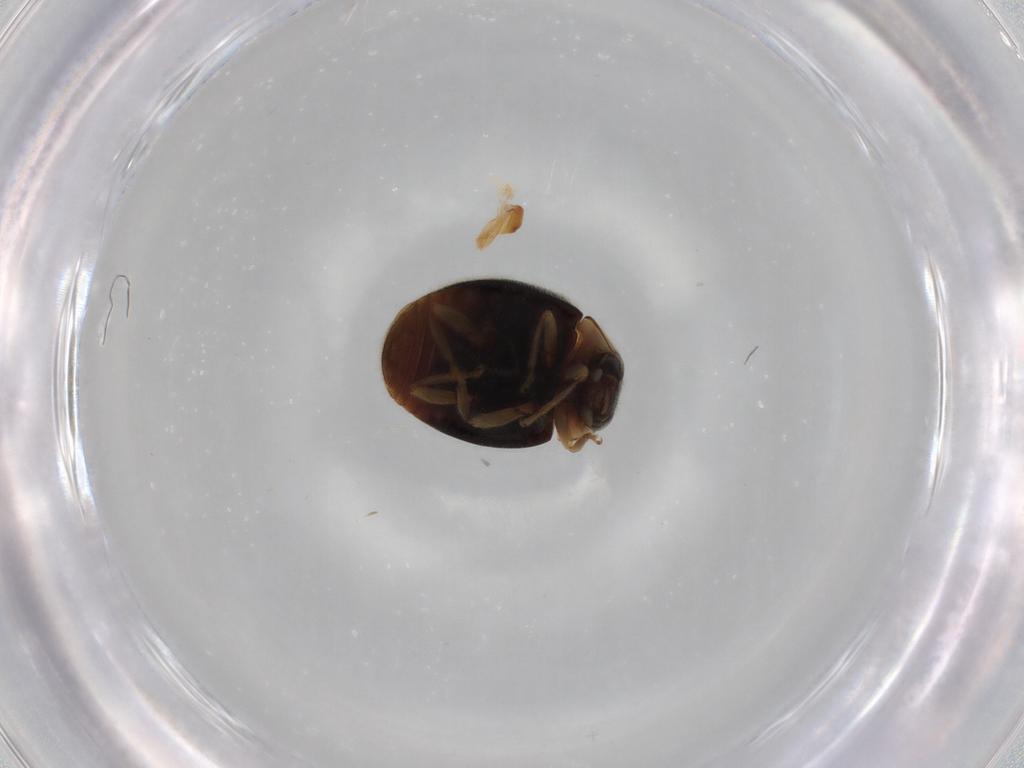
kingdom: Animalia
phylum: Arthropoda
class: Insecta
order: Coleoptera
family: Coccinellidae
